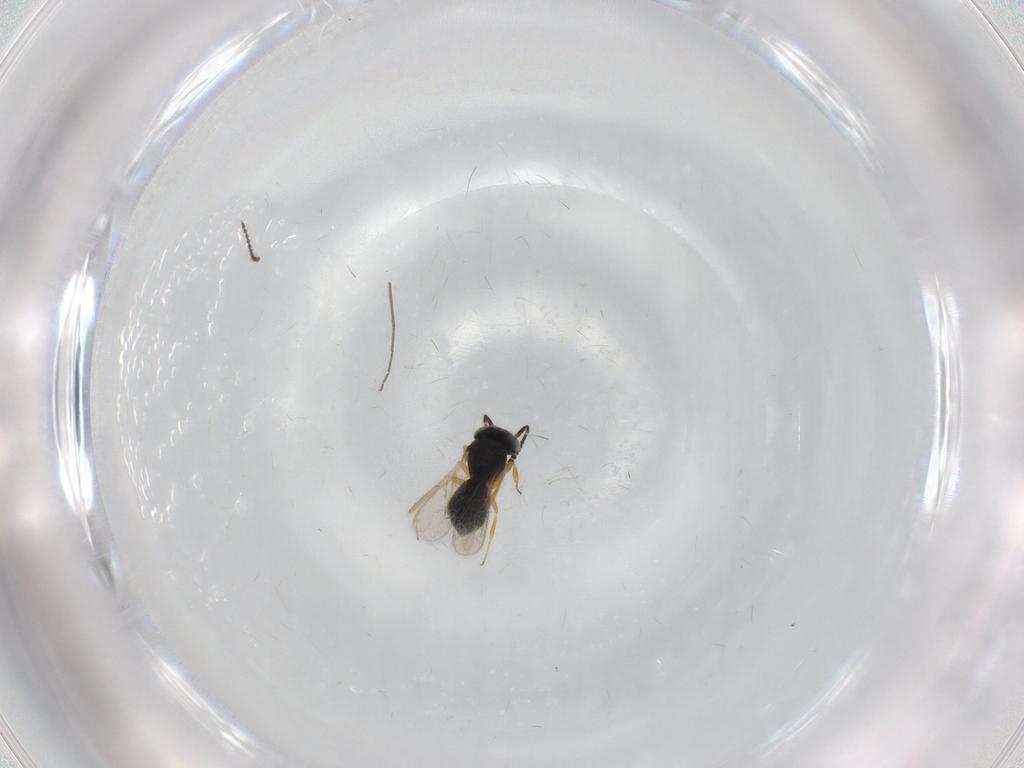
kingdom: Animalia
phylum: Arthropoda
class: Insecta
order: Hymenoptera
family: Scelionidae
